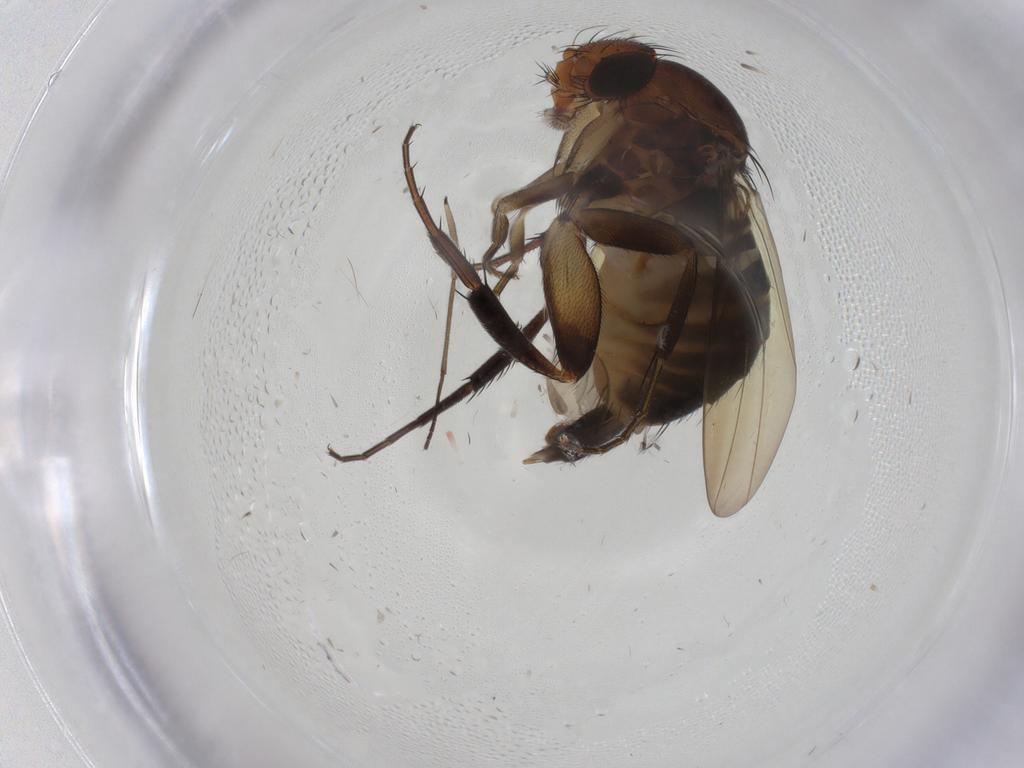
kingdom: Animalia
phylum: Arthropoda
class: Insecta
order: Diptera
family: Phoridae
